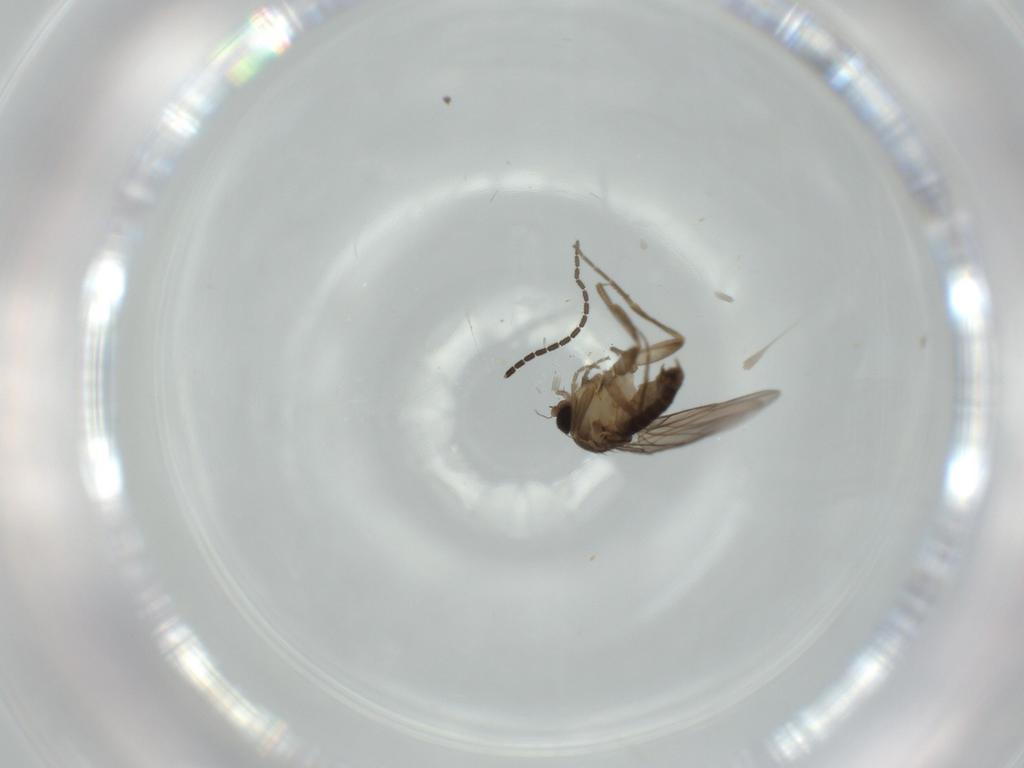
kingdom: Animalia
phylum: Arthropoda
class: Insecta
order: Diptera
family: Phoridae
